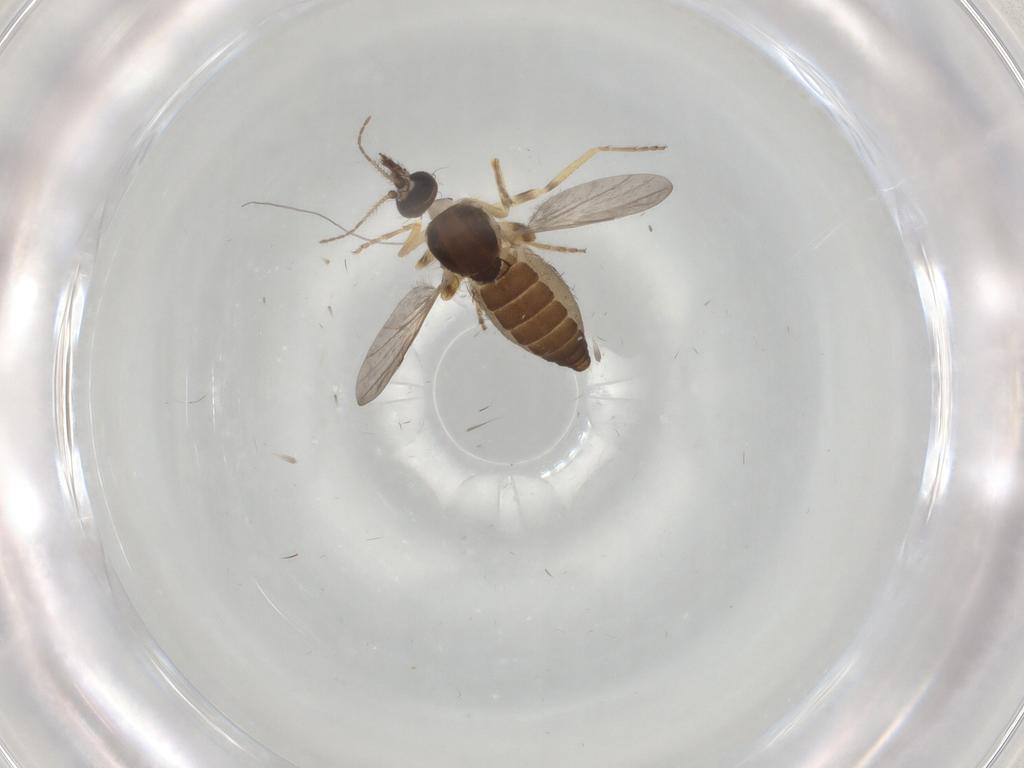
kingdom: Animalia
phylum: Arthropoda
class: Insecta
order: Diptera
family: Ceratopogonidae
